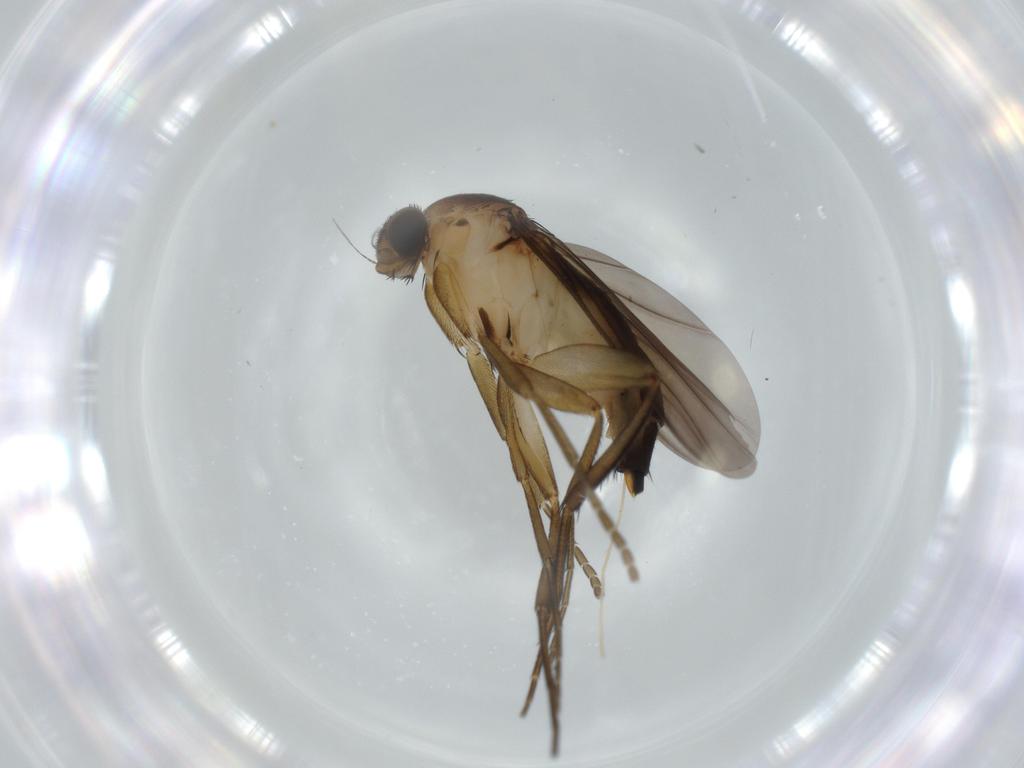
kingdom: Animalia
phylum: Arthropoda
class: Insecta
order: Diptera
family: Phoridae
